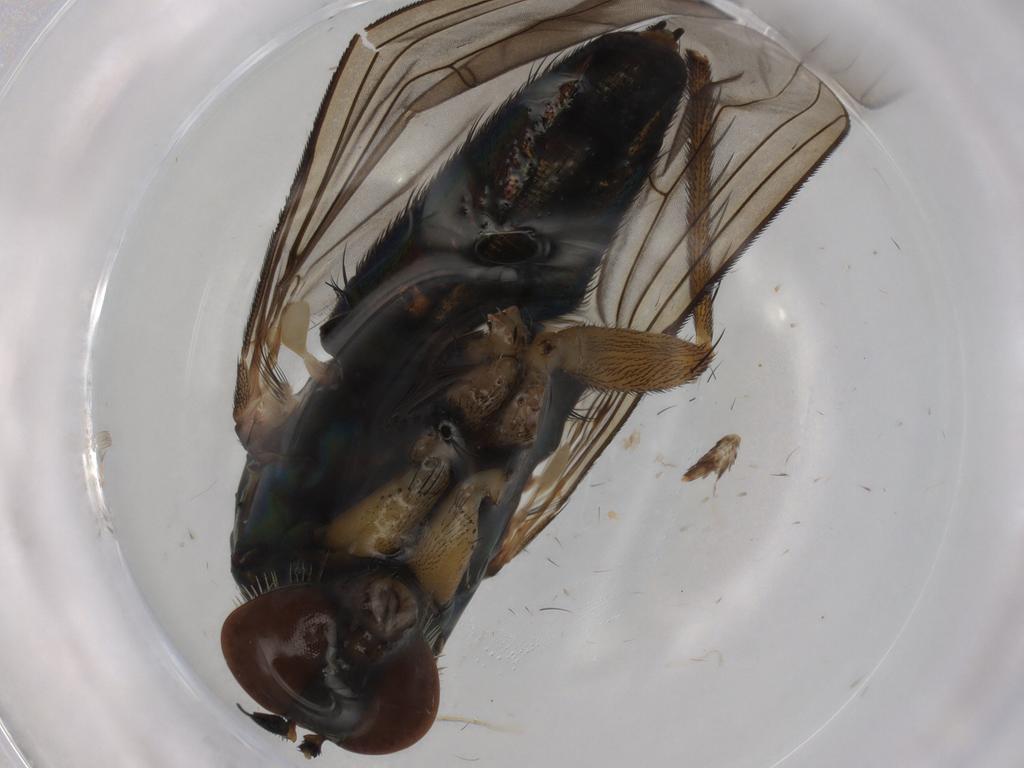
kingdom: Animalia
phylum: Arthropoda
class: Insecta
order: Diptera
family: Dolichopodidae
